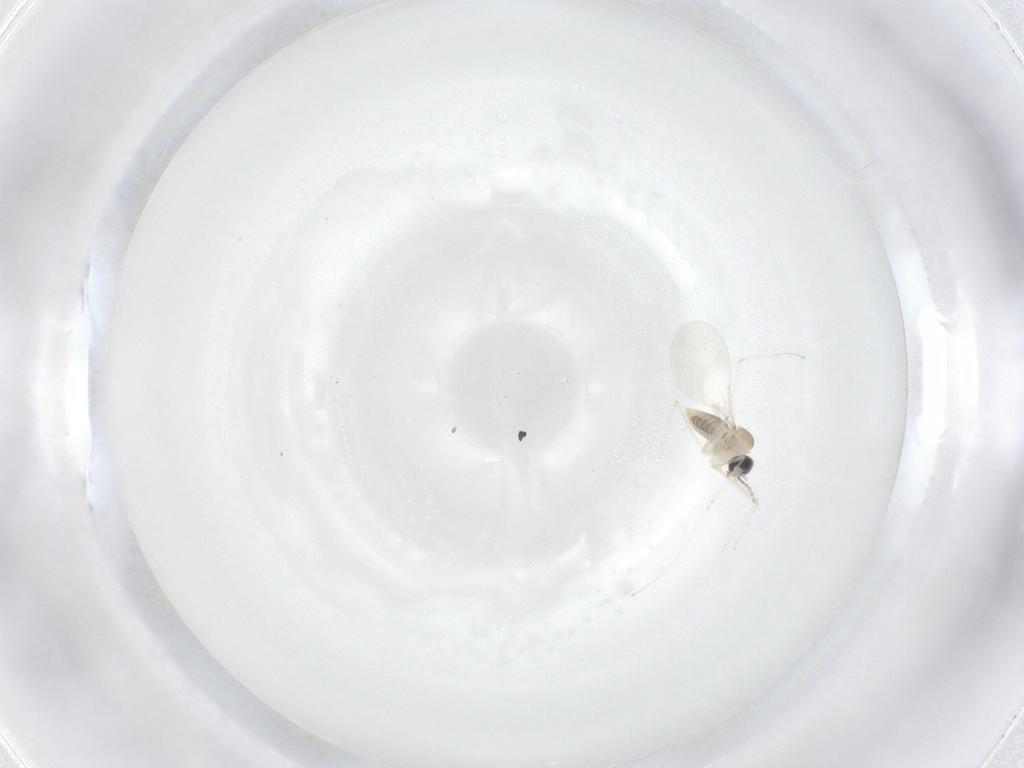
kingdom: Animalia
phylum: Arthropoda
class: Insecta
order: Diptera
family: Cecidomyiidae
